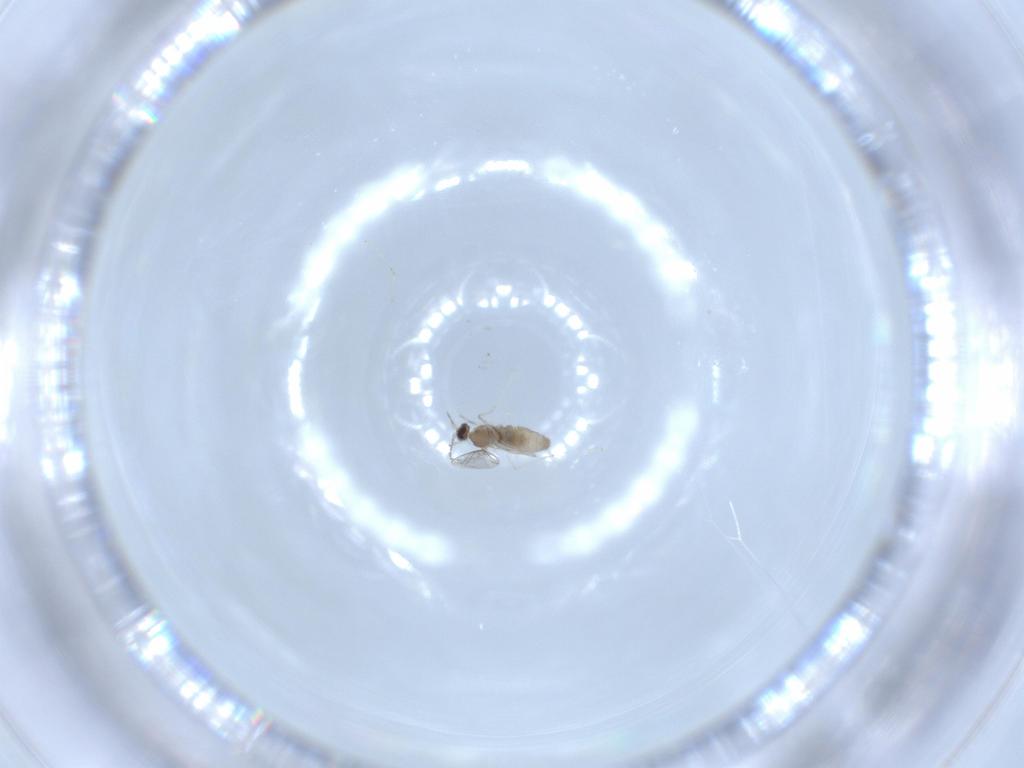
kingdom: Animalia
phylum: Arthropoda
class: Insecta
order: Diptera
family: Cecidomyiidae
